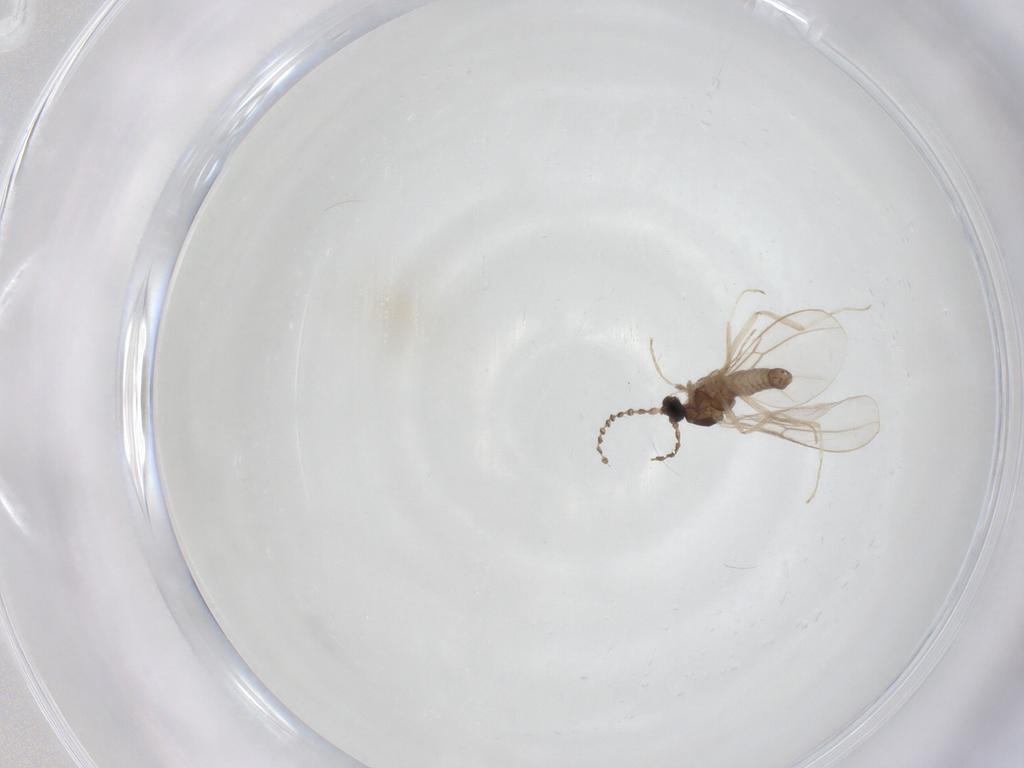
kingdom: Animalia
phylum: Arthropoda
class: Insecta
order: Diptera
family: Cecidomyiidae
